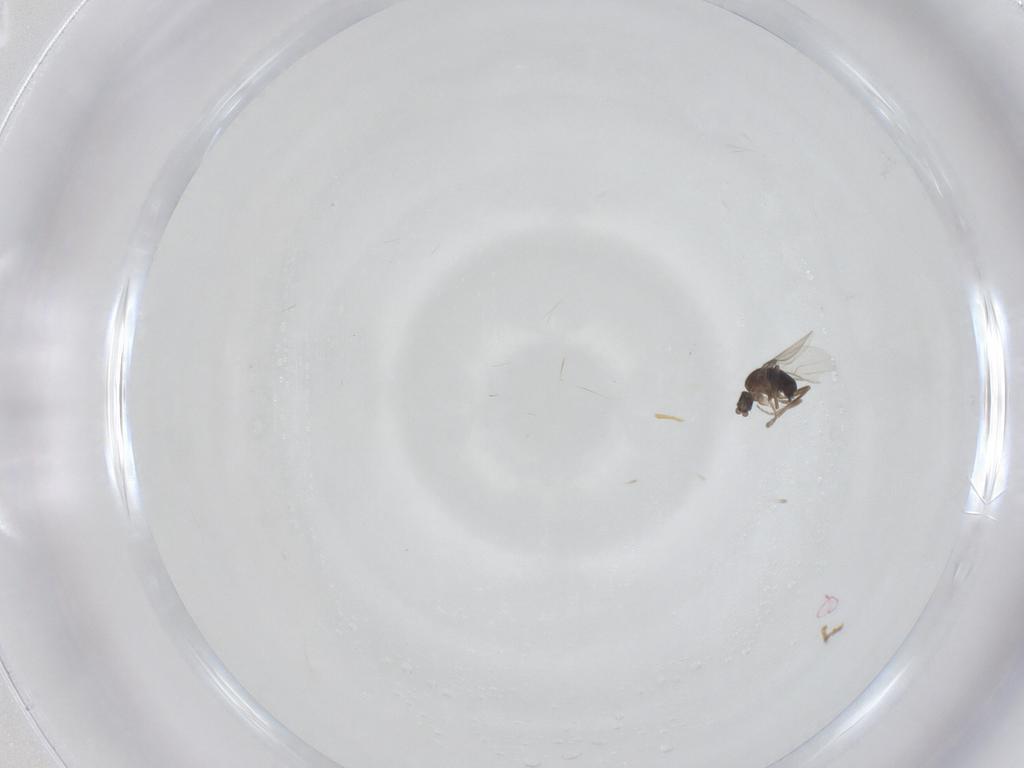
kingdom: Animalia
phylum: Arthropoda
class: Insecta
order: Diptera
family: Phoridae
